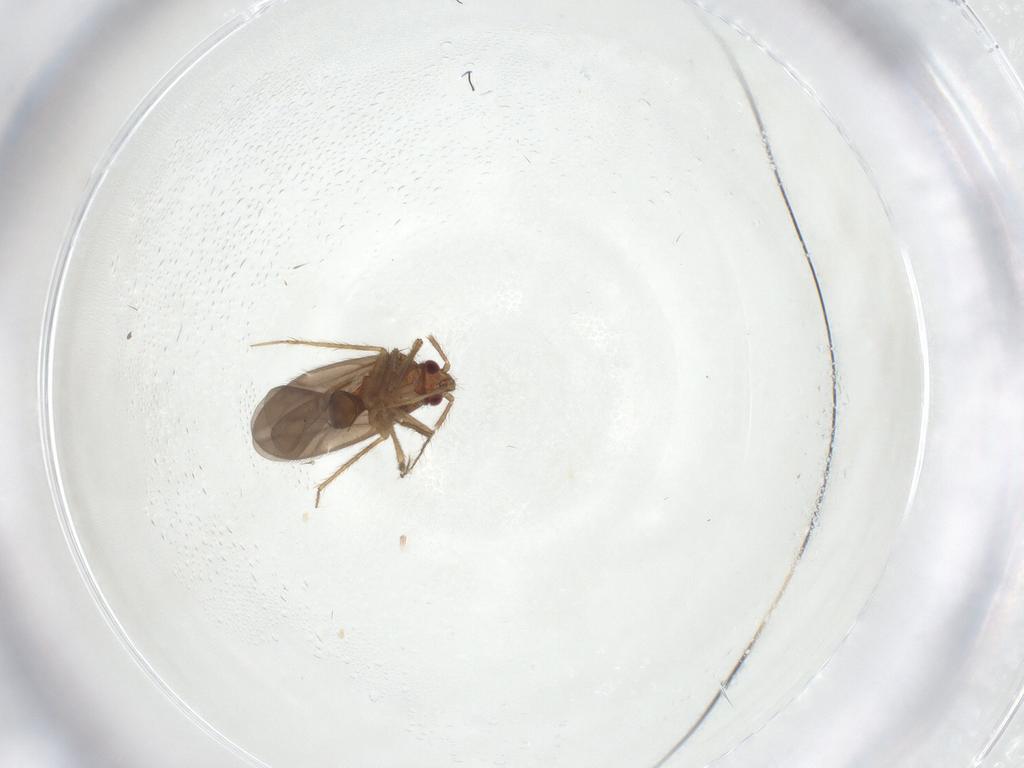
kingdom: Animalia
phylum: Arthropoda
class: Insecta
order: Hemiptera
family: Ceratocombidae
